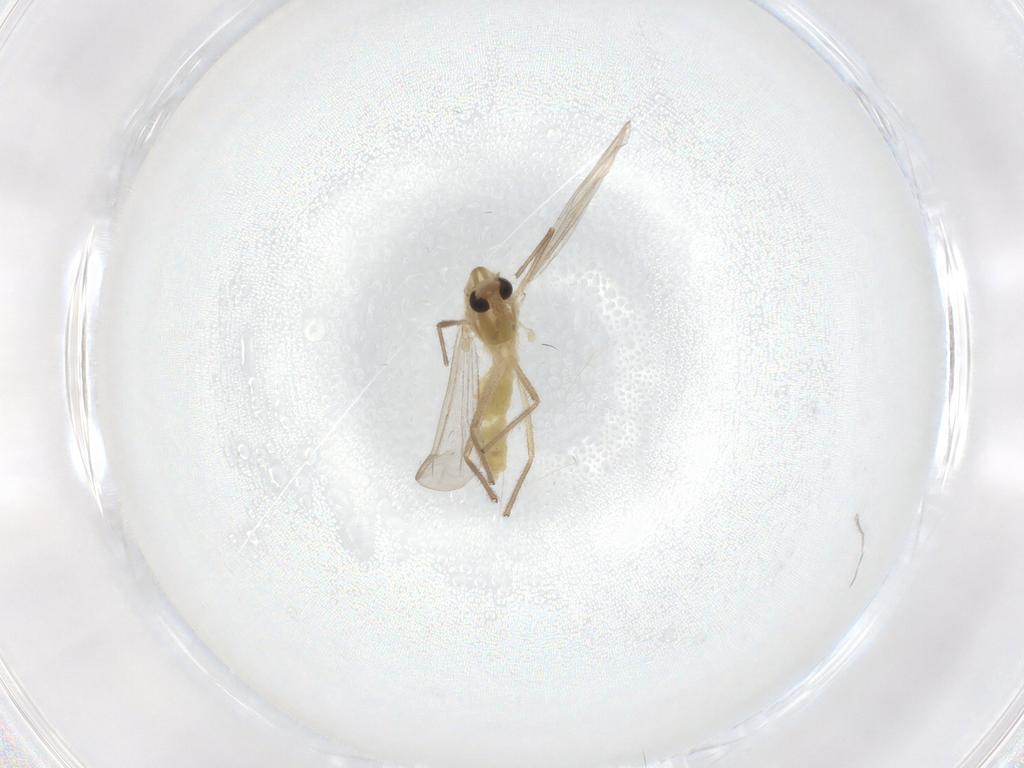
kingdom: Animalia
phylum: Arthropoda
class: Insecta
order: Diptera
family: Chironomidae
